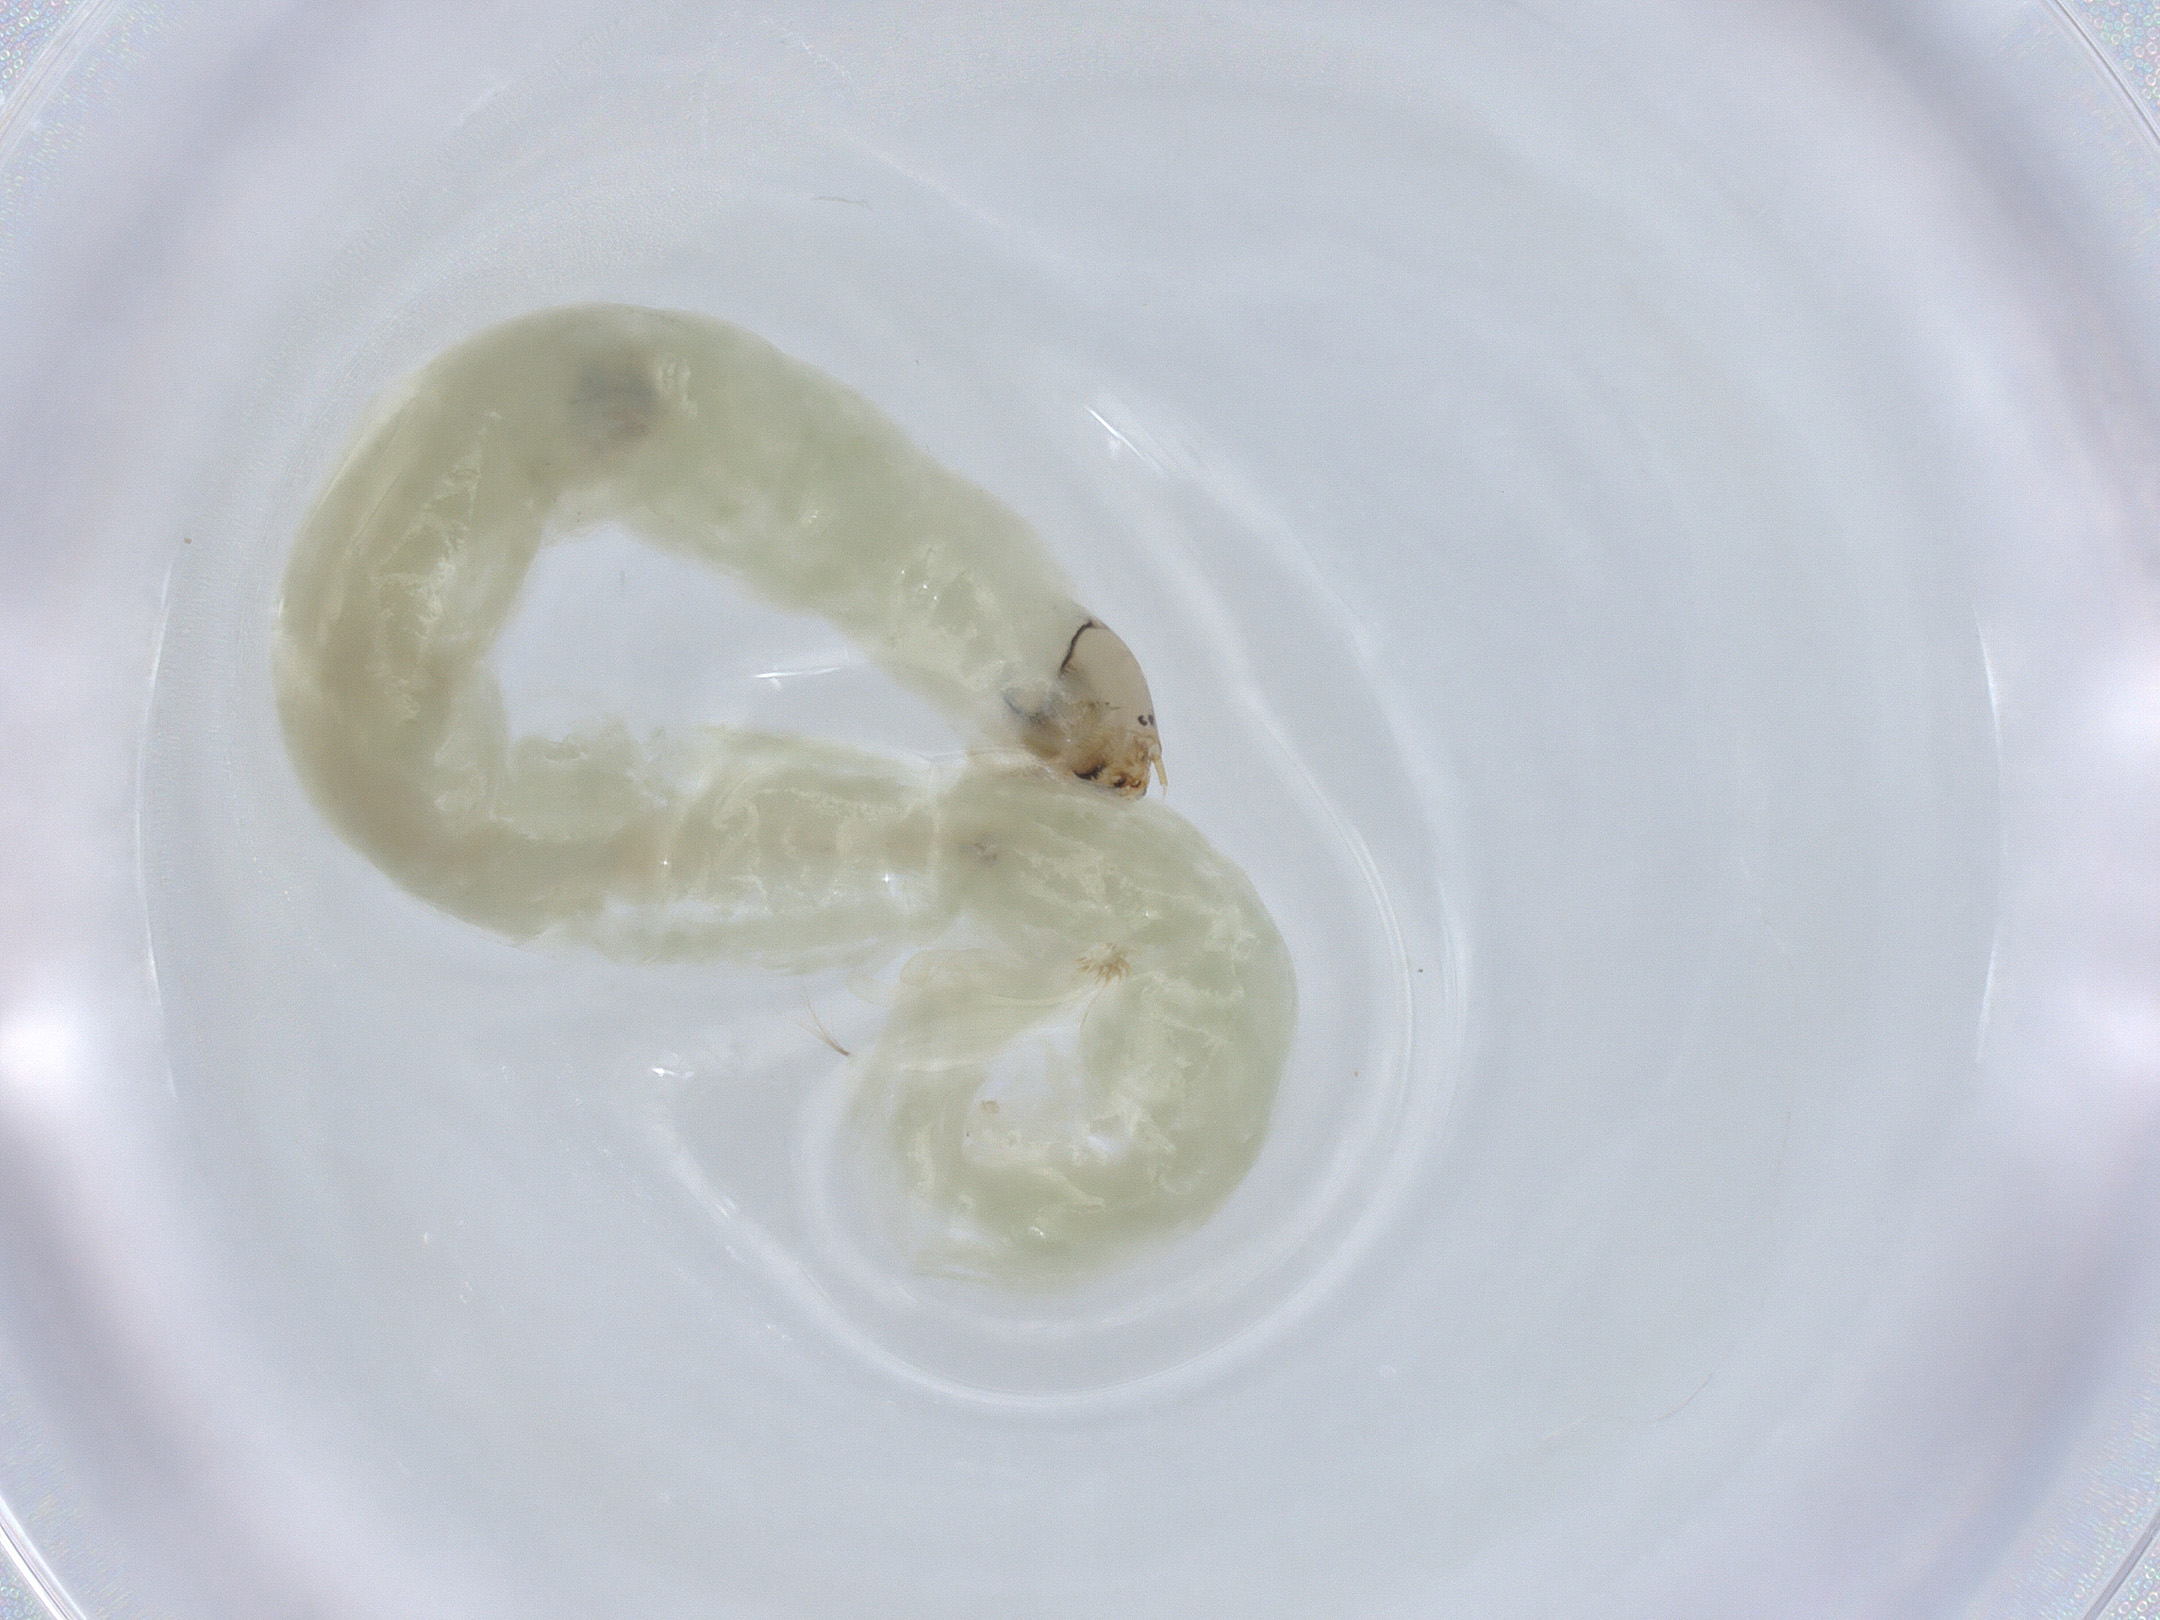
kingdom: Animalia
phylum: Arthropoda
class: Insecta
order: Diptera
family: Chironomidae
